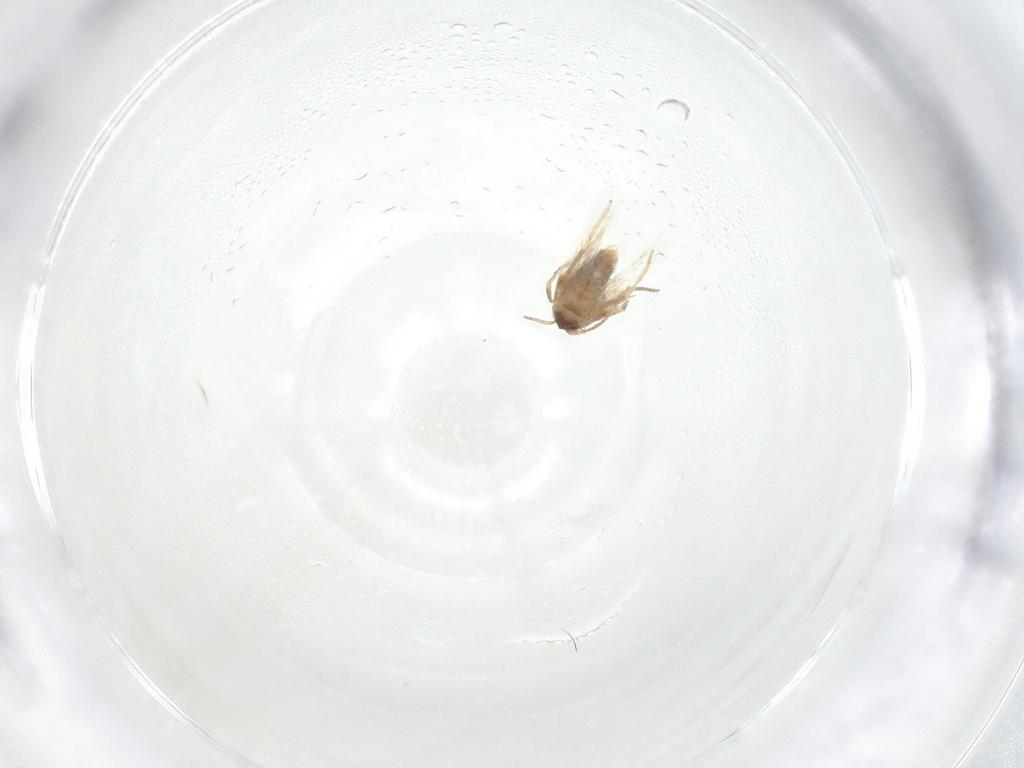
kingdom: Animalia
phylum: Arthropoda
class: Insecta
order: Lepidoptera
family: Nepticulidae
